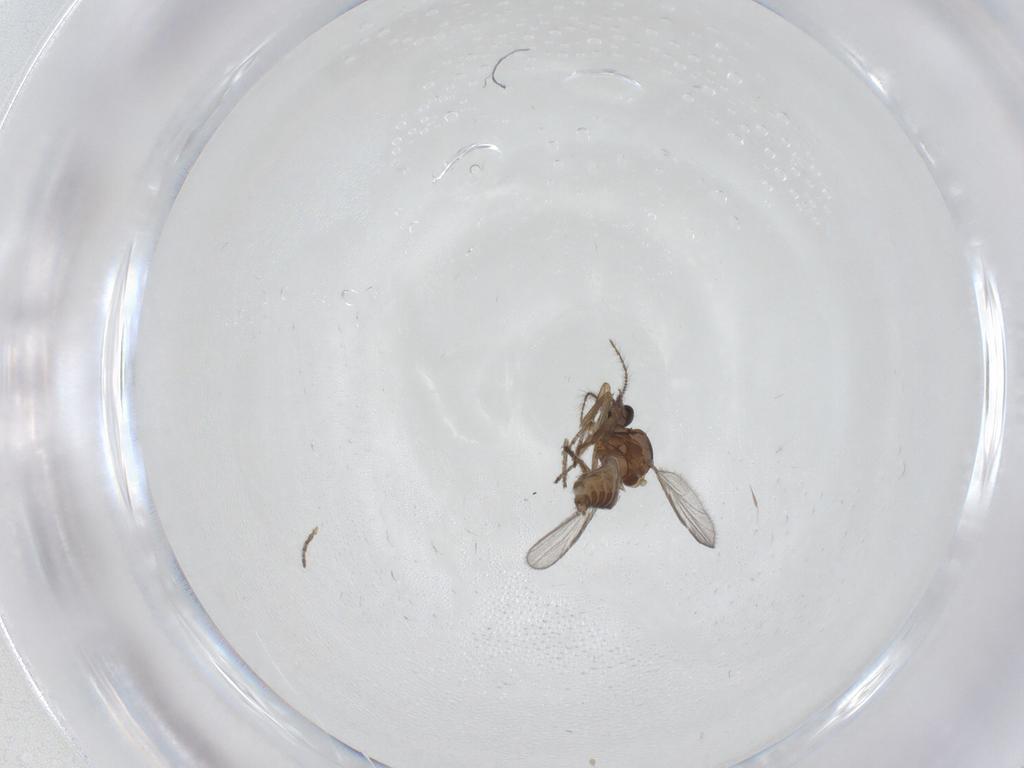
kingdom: Animalia
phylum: Arthropoda
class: Insecta
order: Diptera
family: Ceratopogonidae
